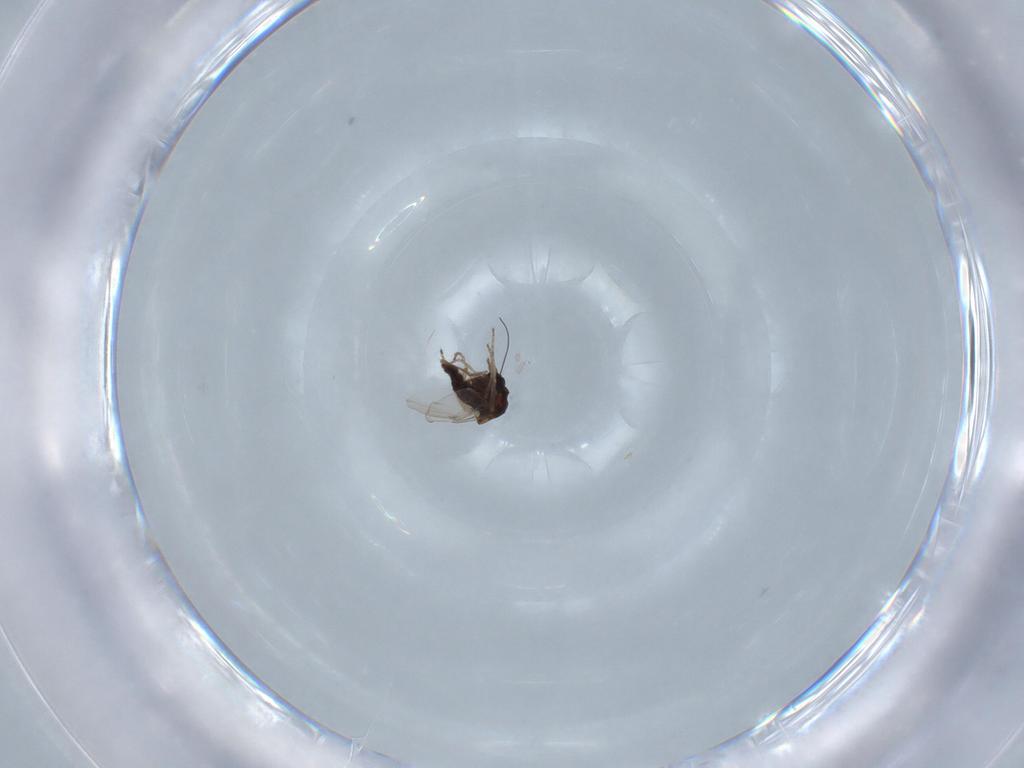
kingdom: Animalia
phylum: Arthropoda
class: Insecta
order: Diptera
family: Ceratopogonidae
